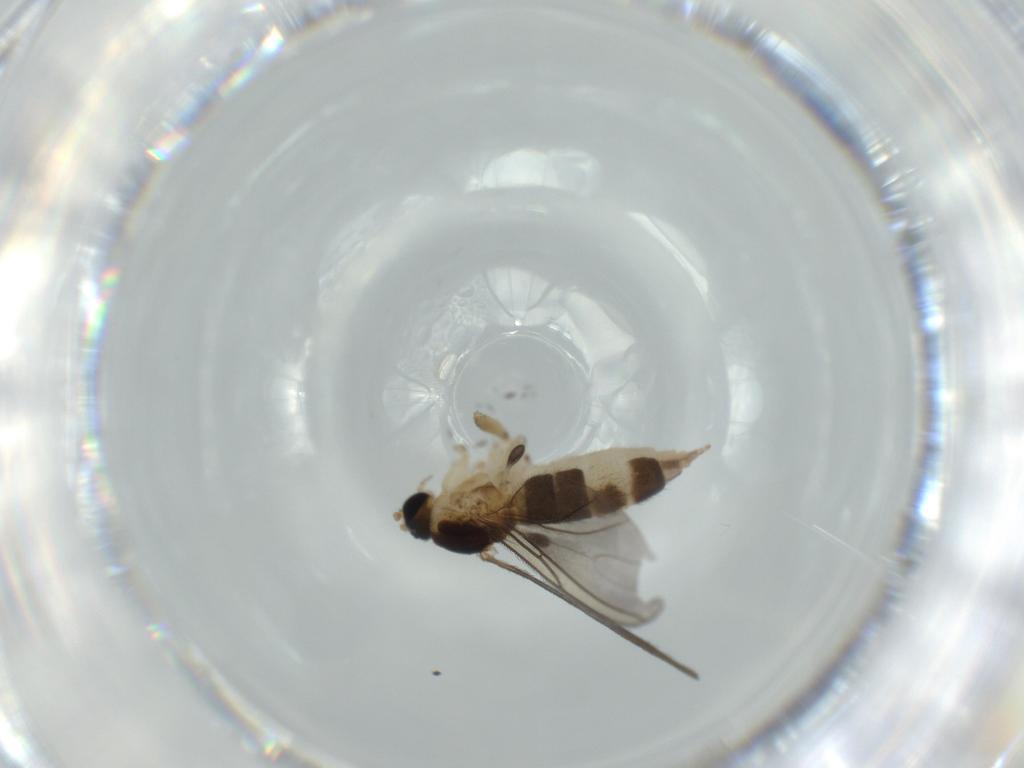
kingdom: Animalia
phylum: Arthropoda
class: Insecta
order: Diptera
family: Sciaridae
